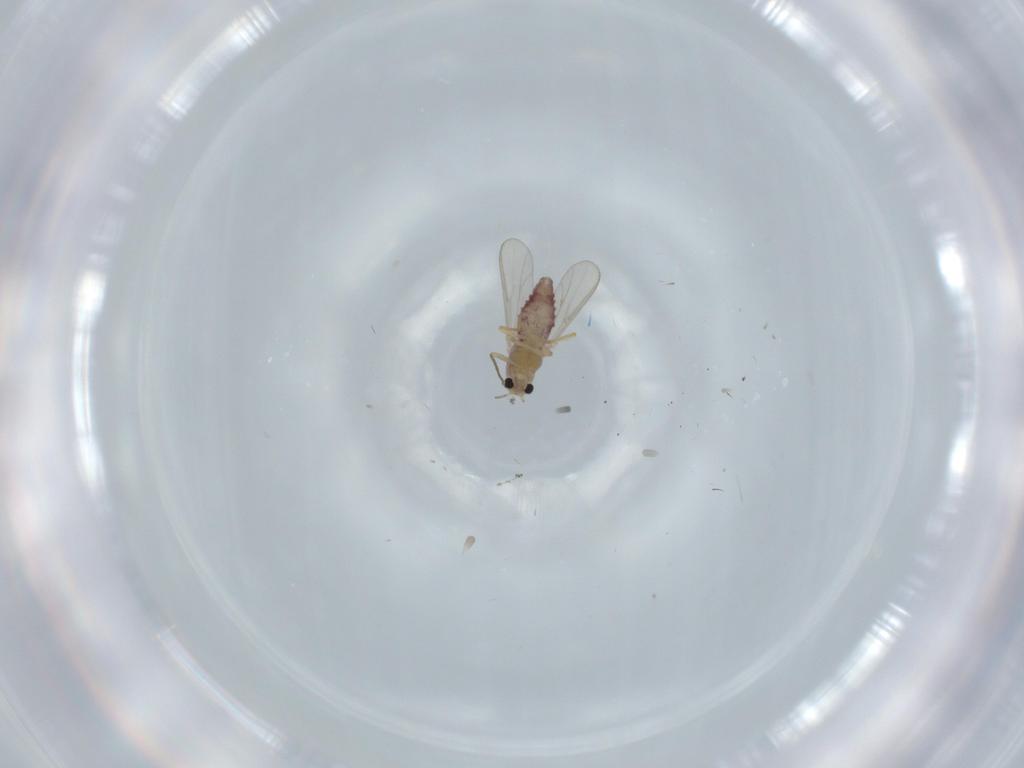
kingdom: Animalia
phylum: Arthropoda
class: Insecta
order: Diptera
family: Chironomidae
